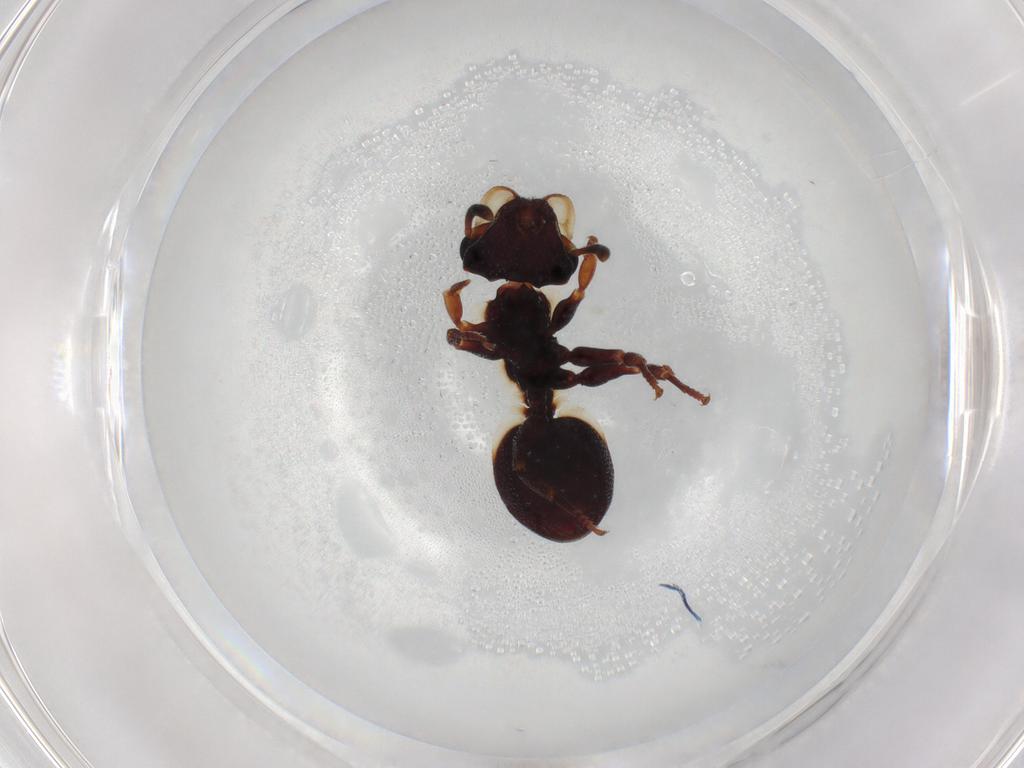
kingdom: Animalia
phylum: Arthropoda
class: Insecta
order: Hymenoptera
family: Formicidae
